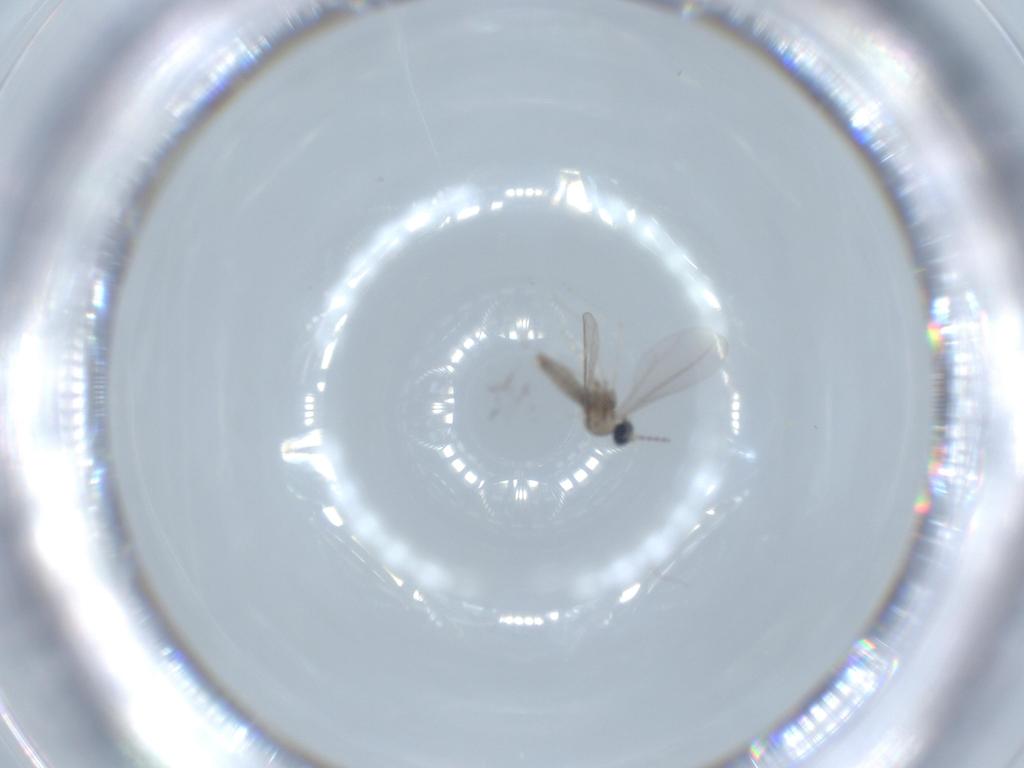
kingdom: Animalia
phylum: Arthropoda
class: Insecta
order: Diptera
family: Cecidomyiidae
